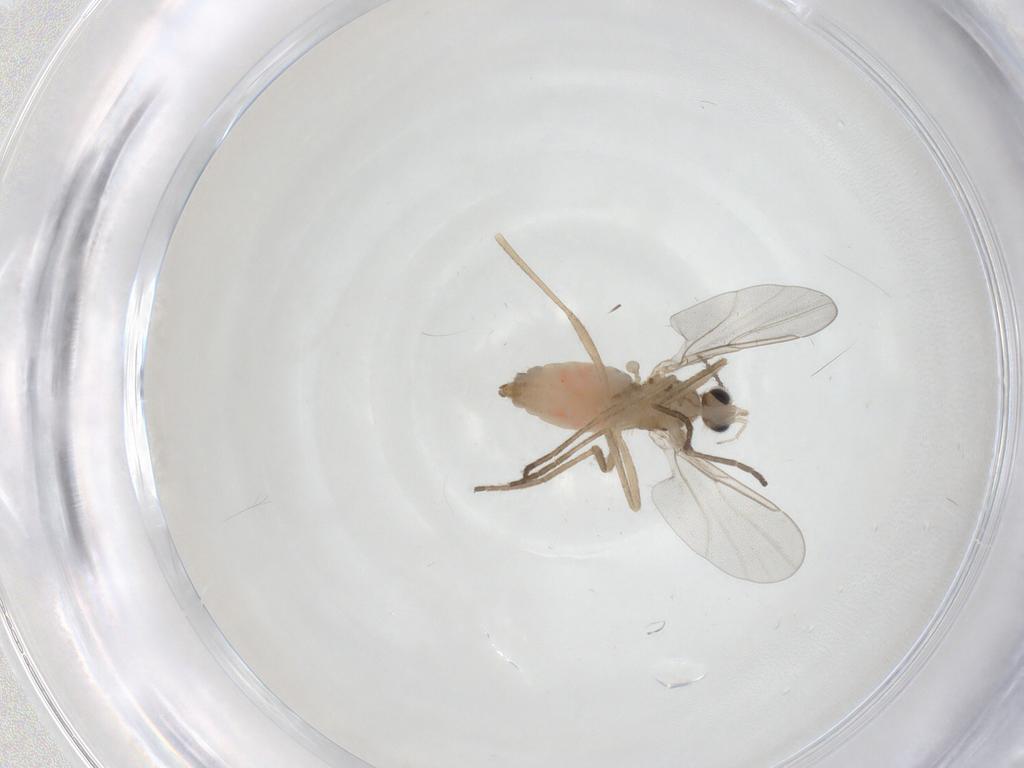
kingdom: Animalia
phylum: Arthropoda
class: Insecta
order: Diptera
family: Cecidomyiidae
